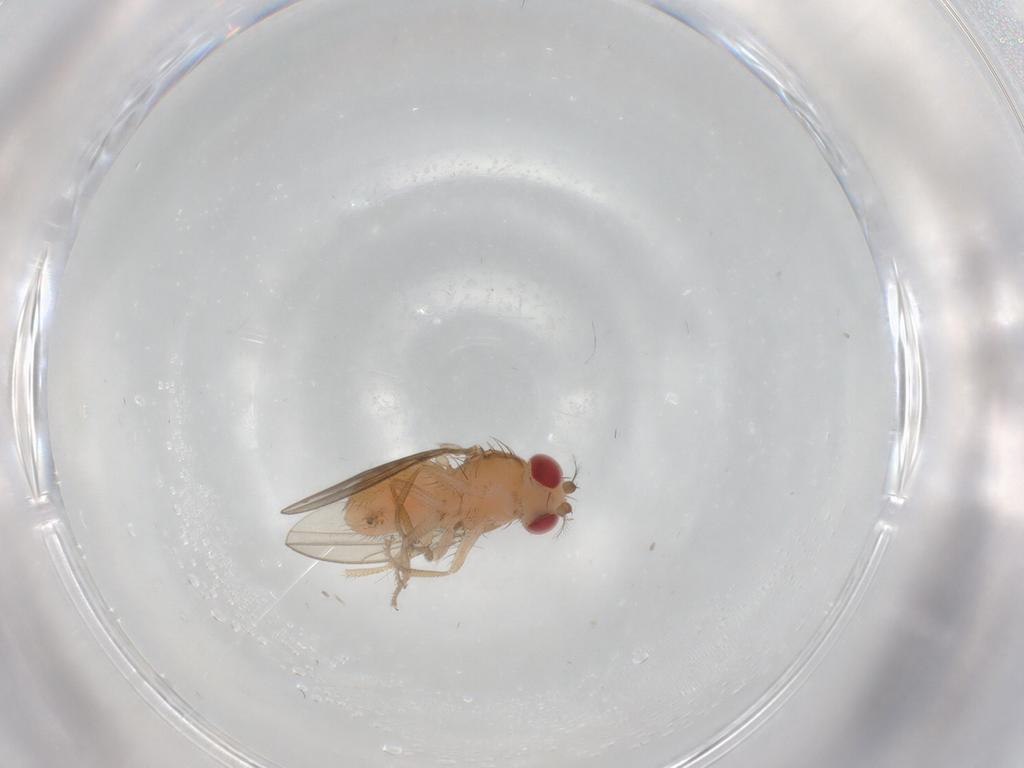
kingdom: Animalia
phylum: Arthropoda
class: Insecta
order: Diptera
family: Drosophilidae
